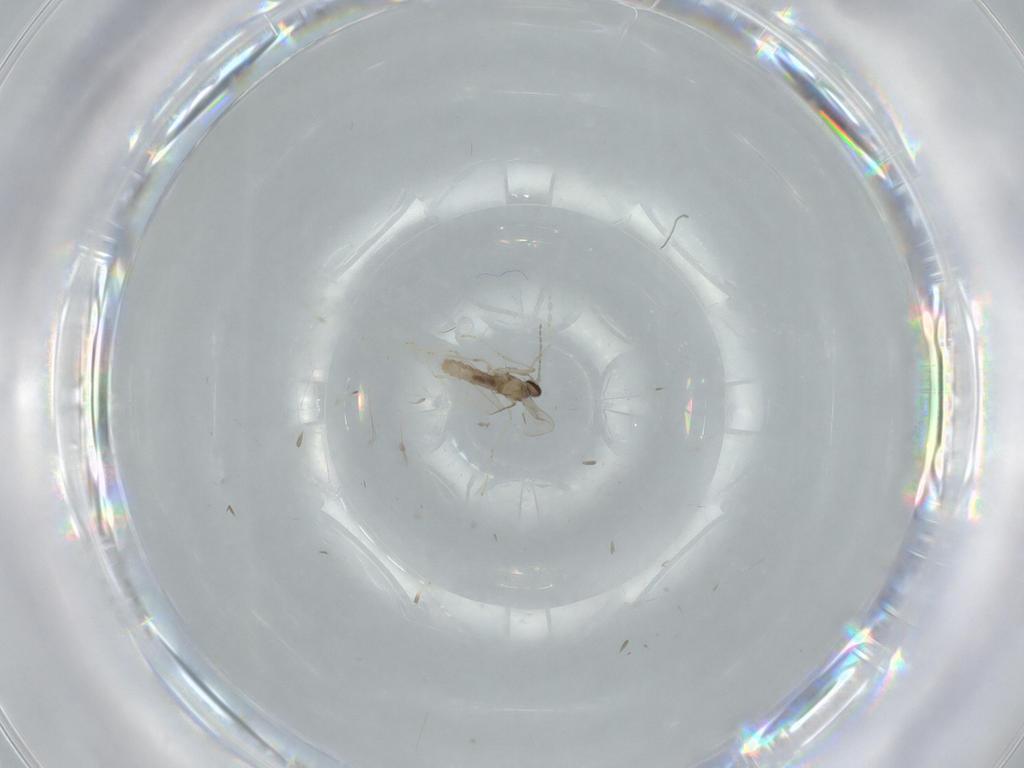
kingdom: Animalia
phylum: Arthropoda
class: Insecta
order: Diptera
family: Cecidomyiidae
